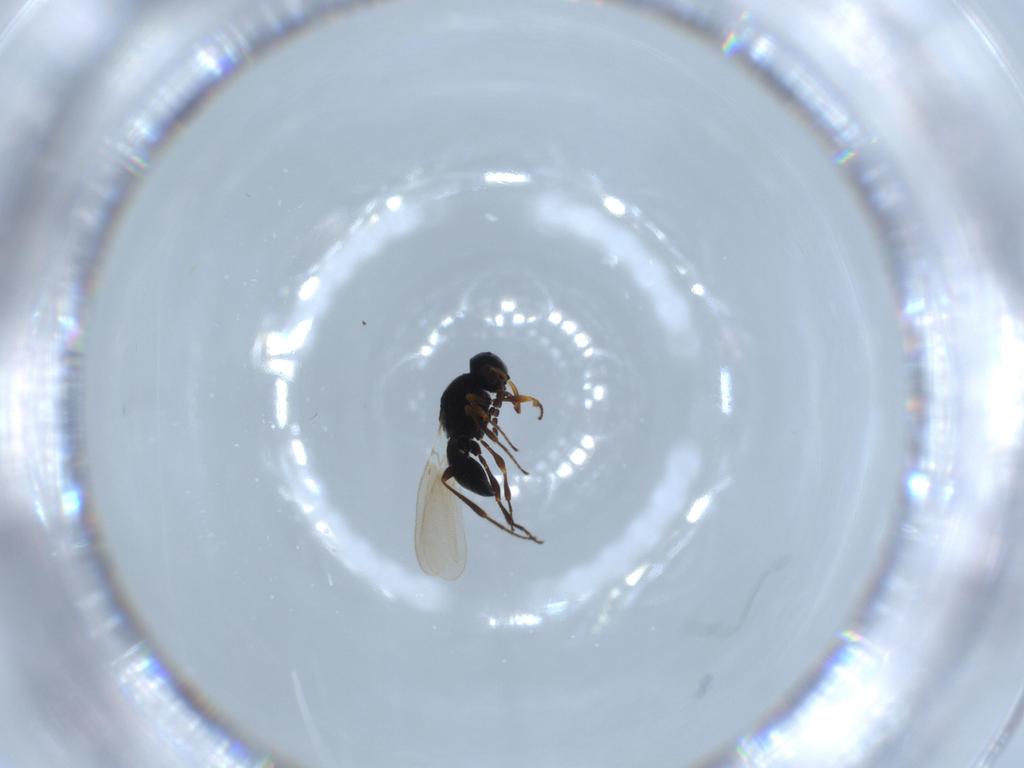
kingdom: Animalia
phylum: Arthropoda
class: Insecta
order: Hymenoptera
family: Platygastridae
